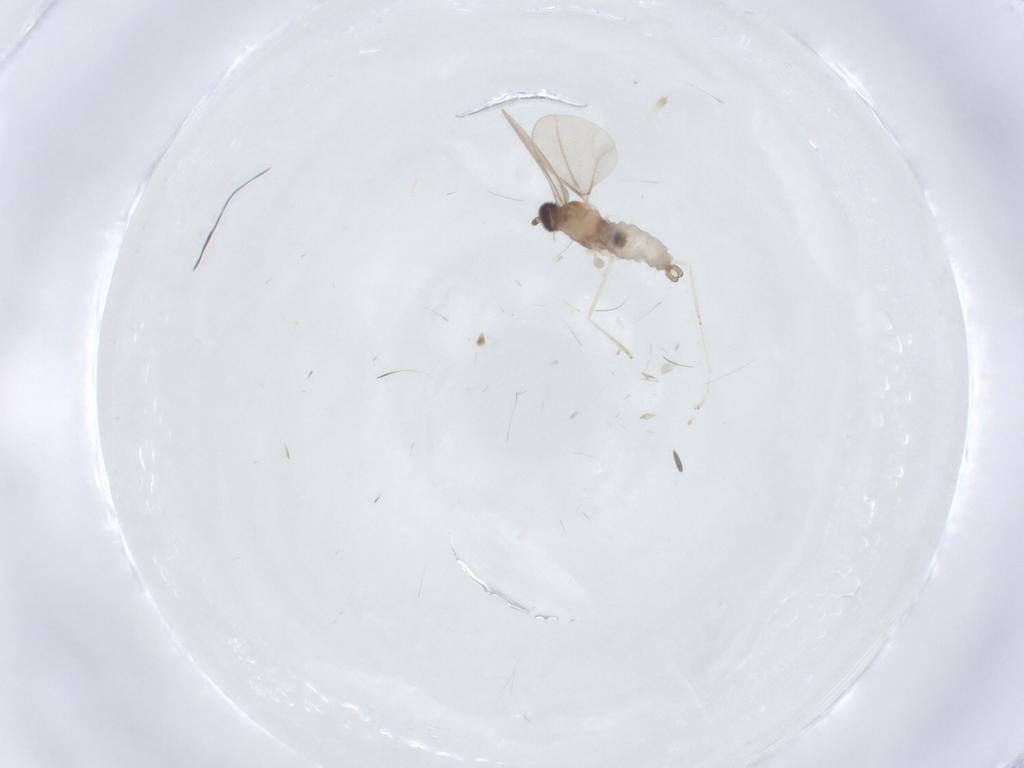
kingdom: Animalia
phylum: Arthropoda
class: Insecta
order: Diptera
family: Cecidomyiidae
